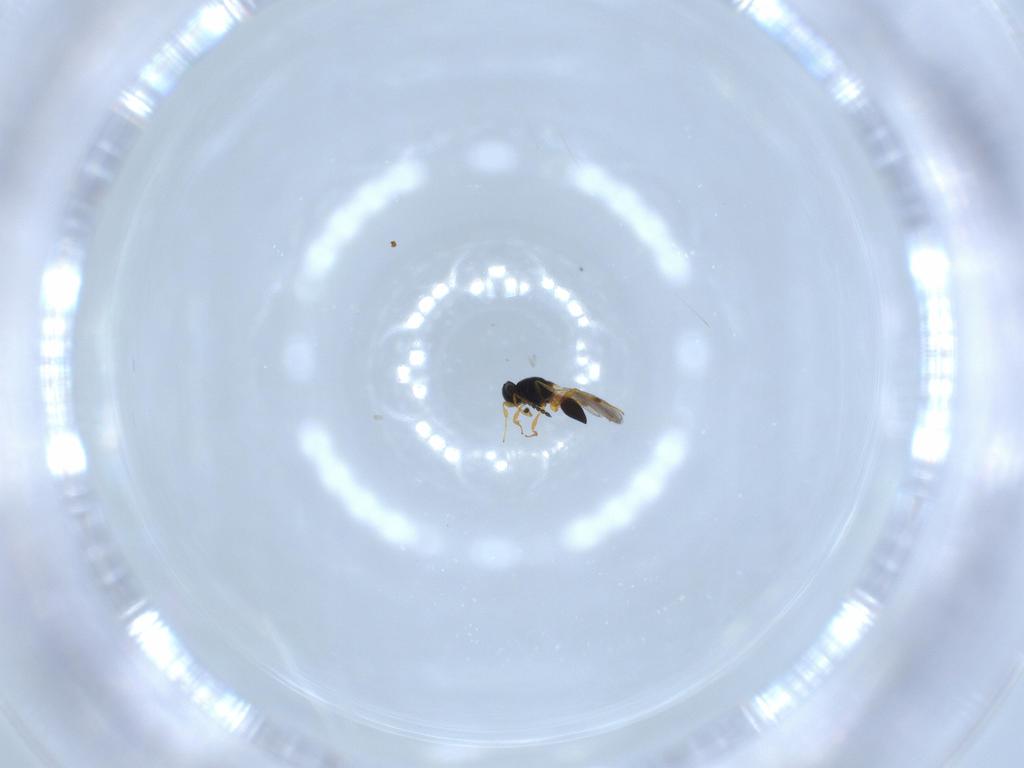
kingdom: Animalia
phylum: Arthropoda
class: Insecta
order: Hymenoptera
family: Platygastridae
